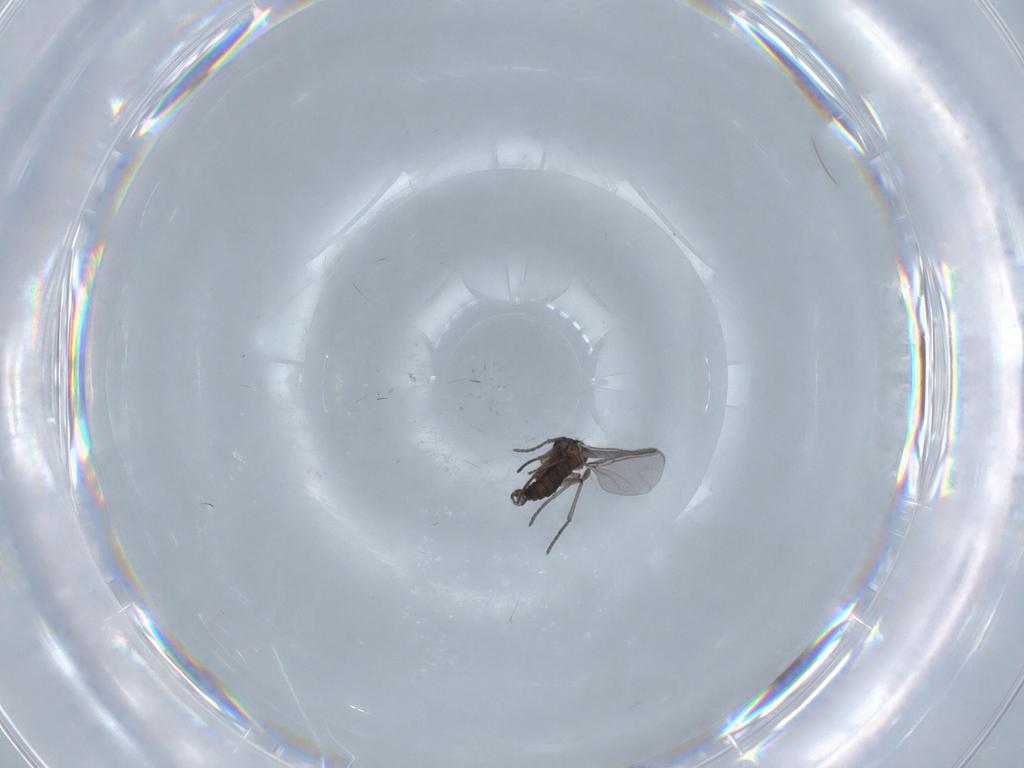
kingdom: Animalia
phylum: Arthropoda
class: Insecta
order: Diptera
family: Cecidomyiidae
